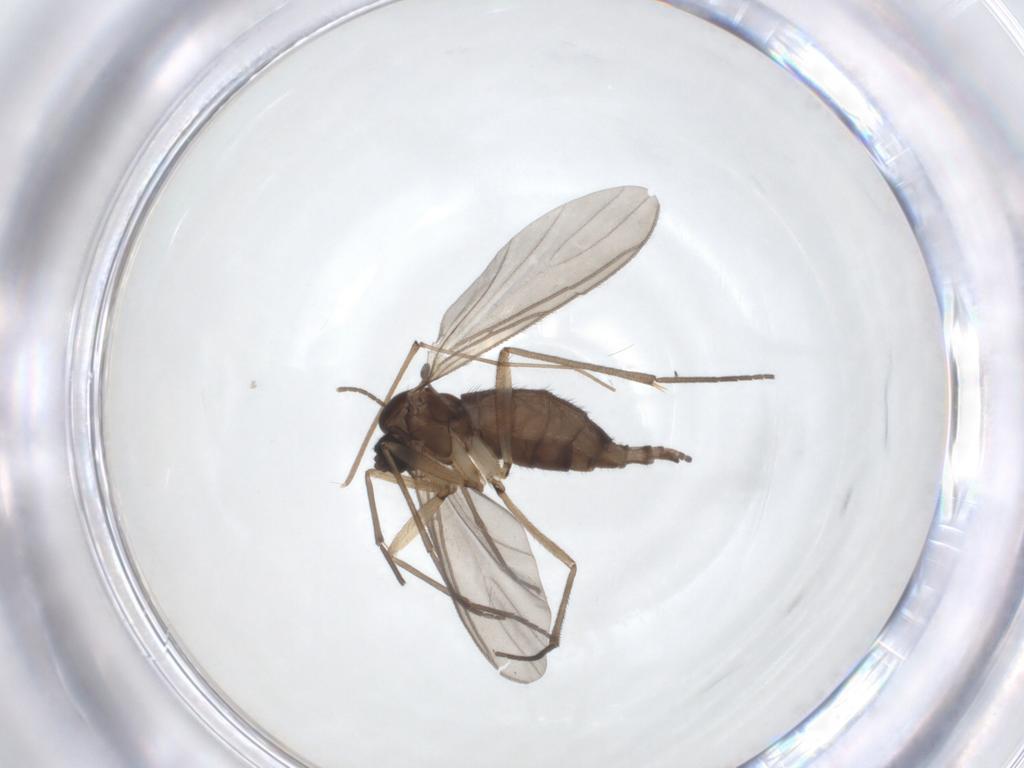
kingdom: Animalia
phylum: Arthropoda
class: Insecta
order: Diptera
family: Sciaridae
